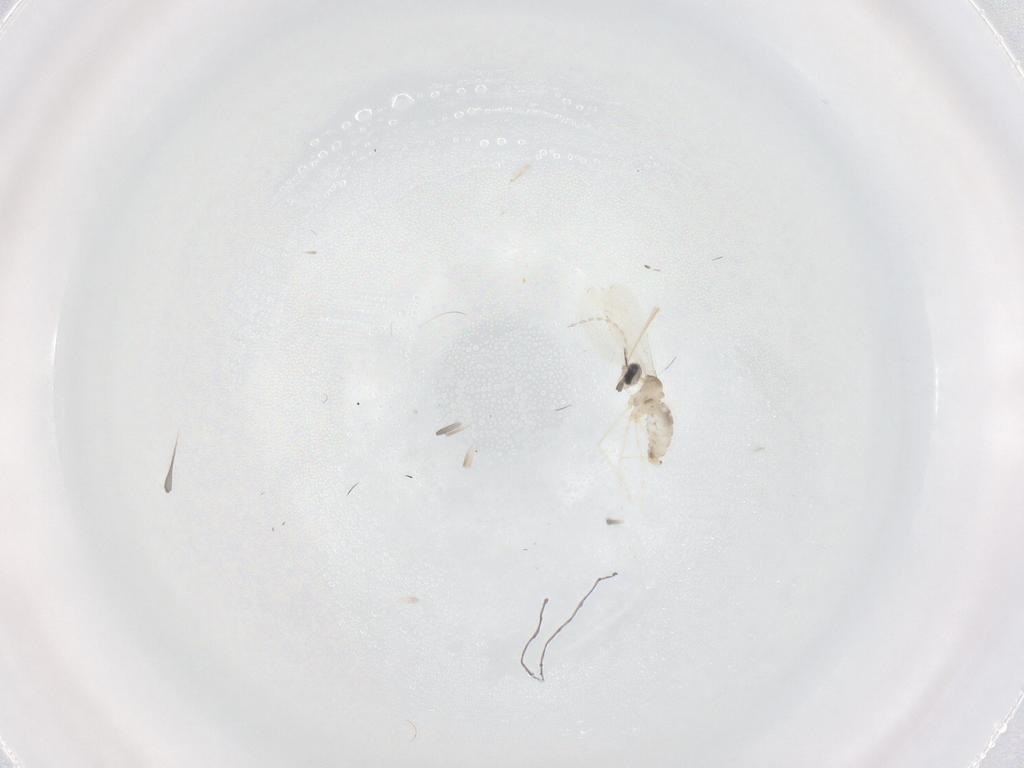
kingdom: Animalia
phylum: Arthropoda
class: Insecta
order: Diptera
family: Cecidomyiidae
